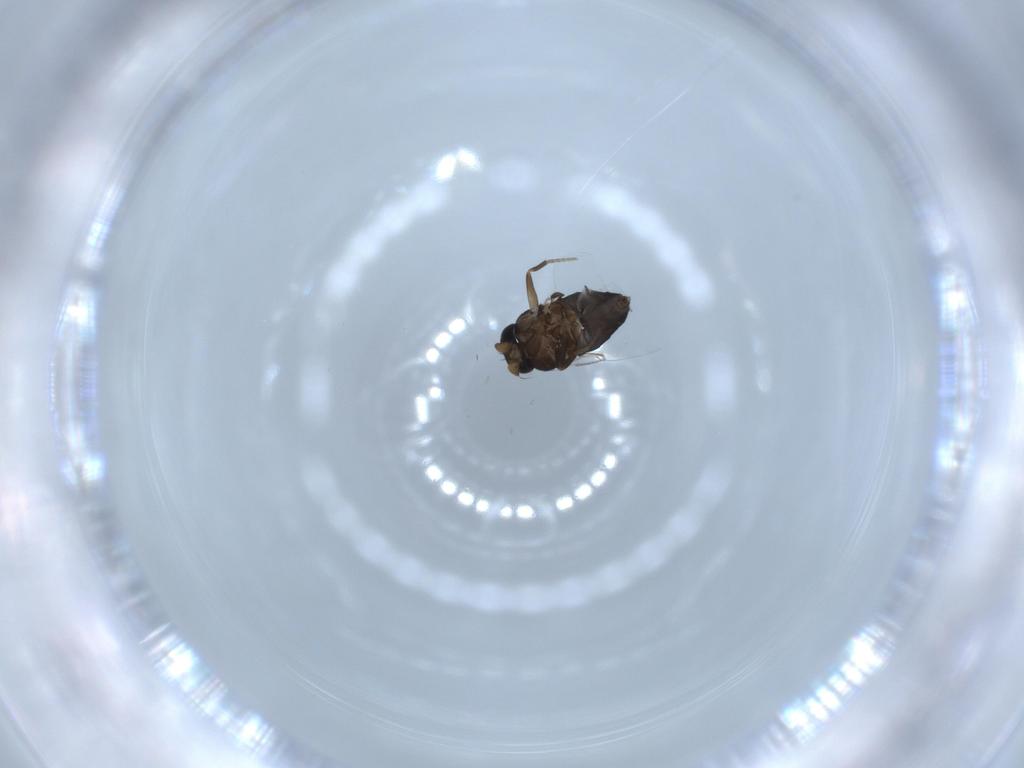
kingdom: Animalia
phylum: Arthropoda
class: Insecta
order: Diptera
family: Phoridae
